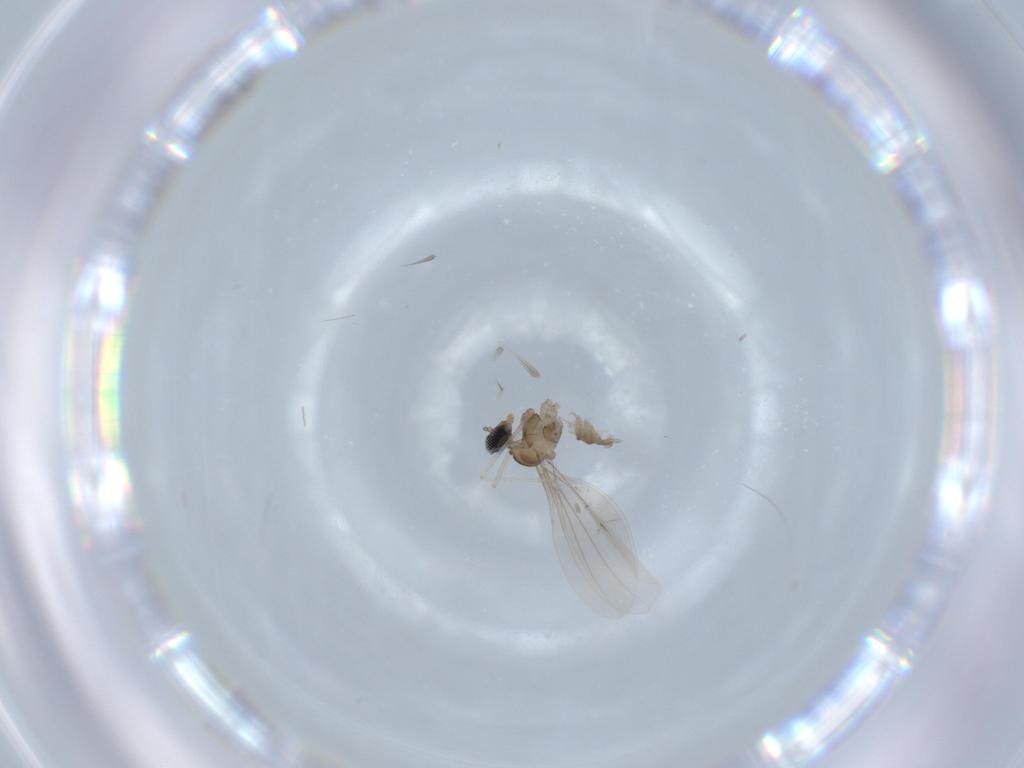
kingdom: Animalia
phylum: Arthropoda
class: Insecta
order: Diptera
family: Cecidomyiidae
